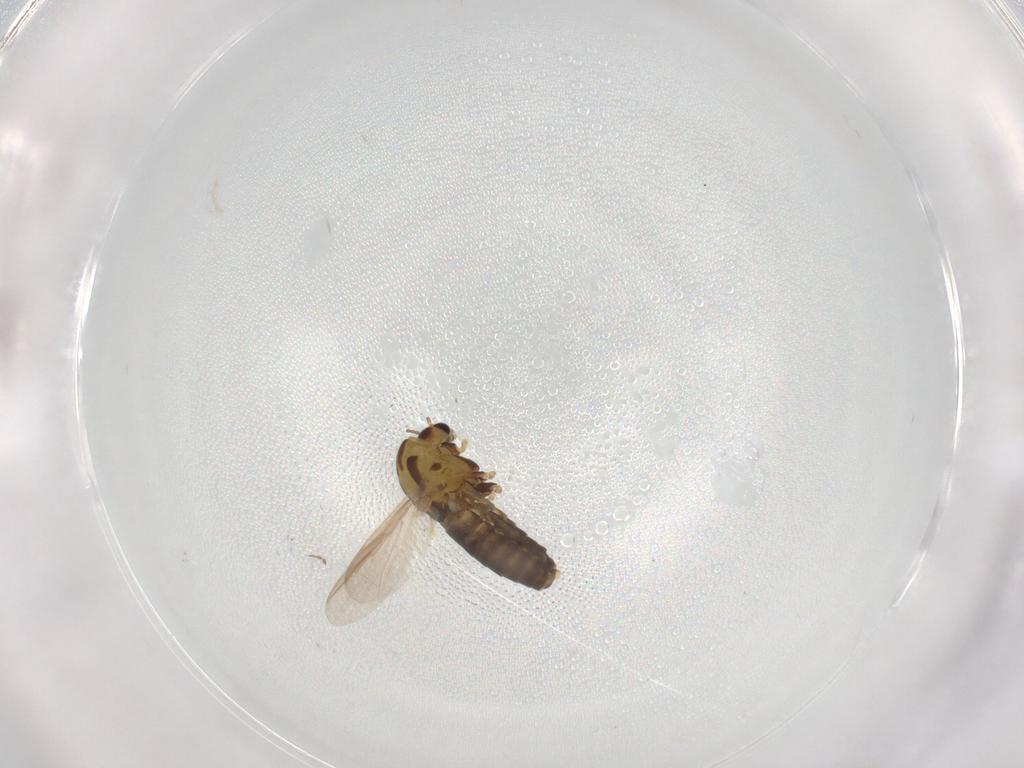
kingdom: Animalia
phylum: Arthropoda
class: Insecta
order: Diptera
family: Chironomidae
